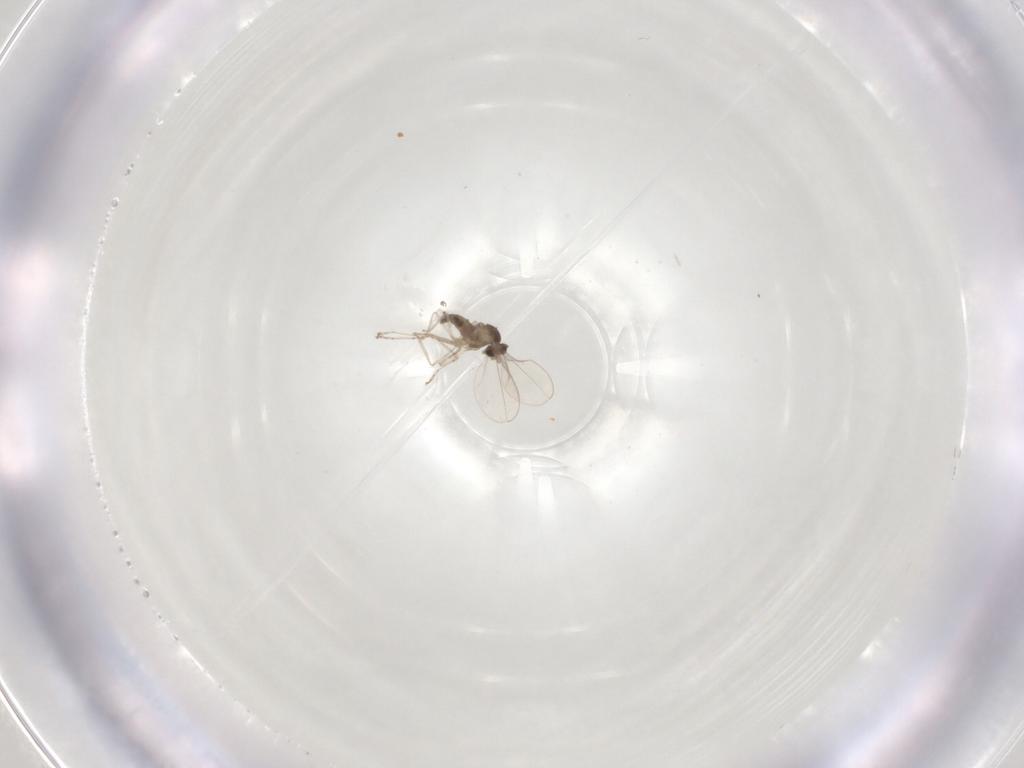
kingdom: Animalia
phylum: Arthropoda
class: Insecta
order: Diptera
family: Cecidomyiidae
